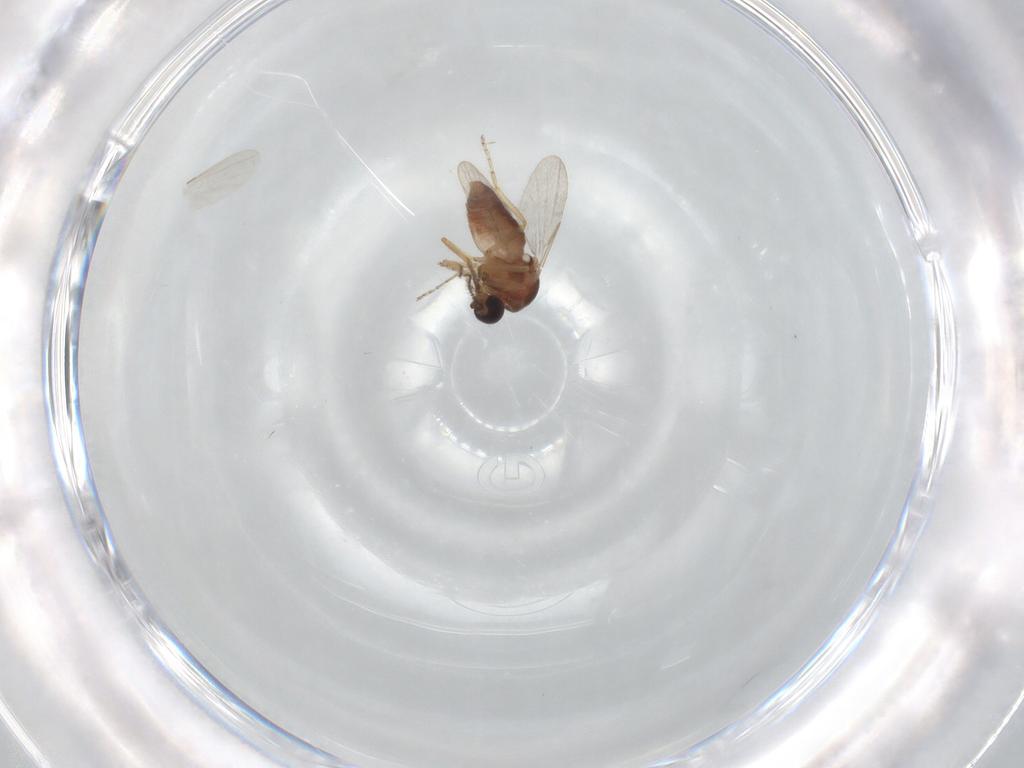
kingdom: Animalia
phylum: Arthropoda
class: Insecta
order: Diptera
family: Ceratopogonidae
